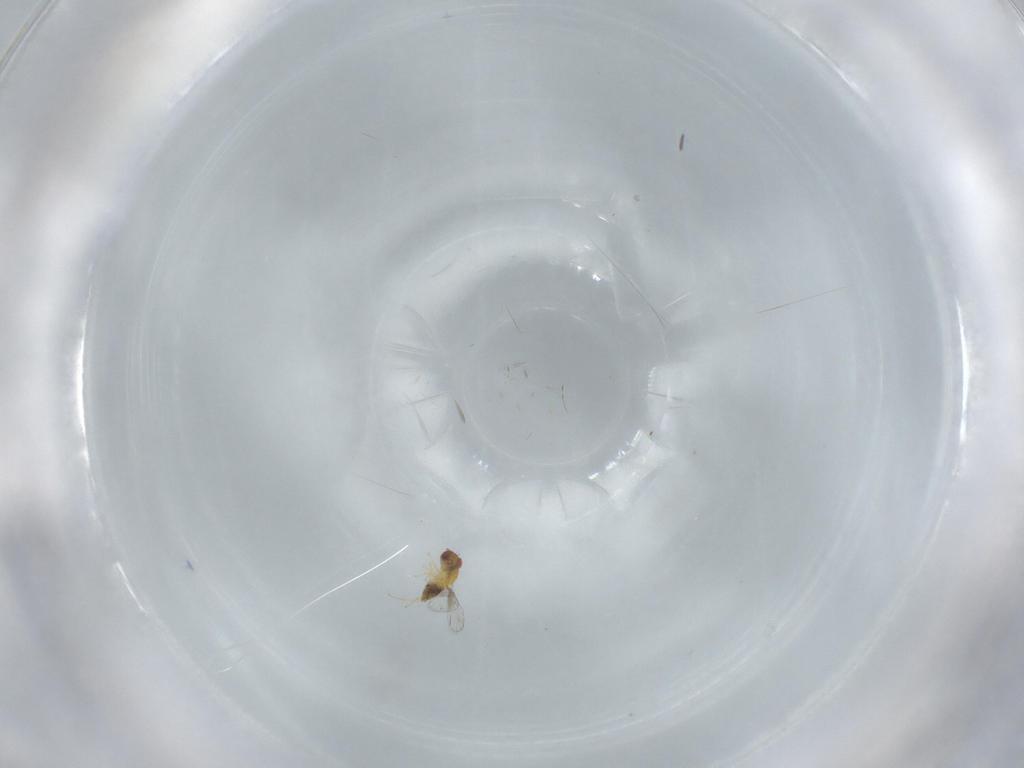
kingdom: Animalia
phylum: Arthropoda
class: Insecta
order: Hymenoptera
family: Trichogrammatidae
